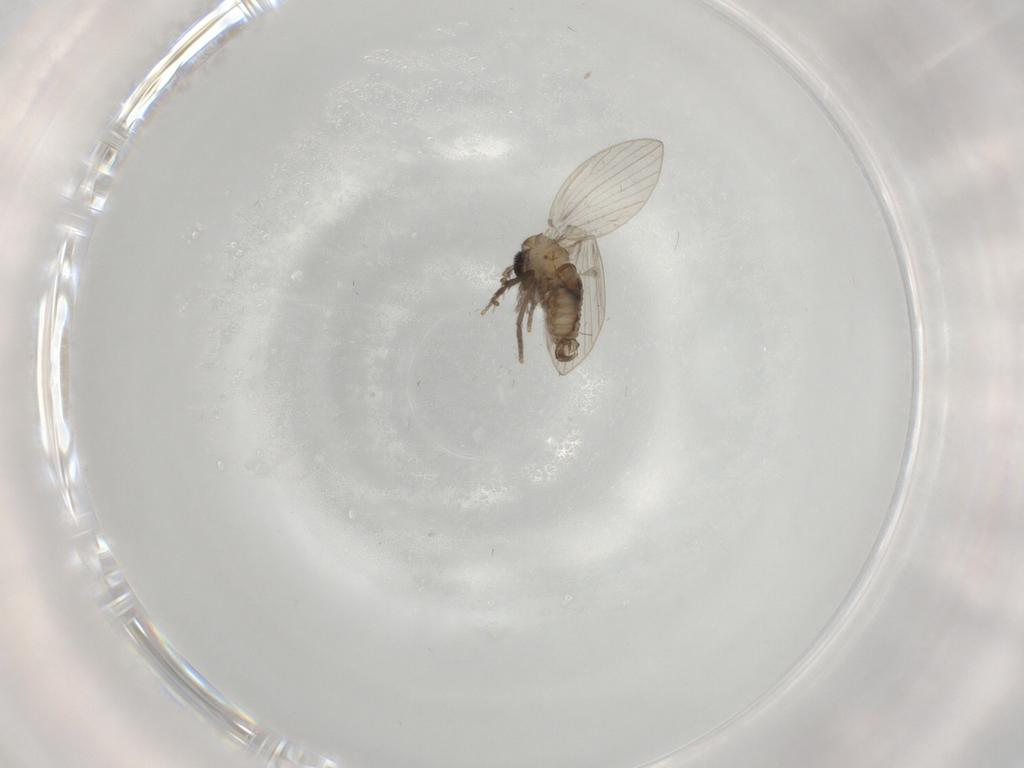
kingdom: Animalia
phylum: Arthropoda
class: Insecta
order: Diptera
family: Psychodidae
